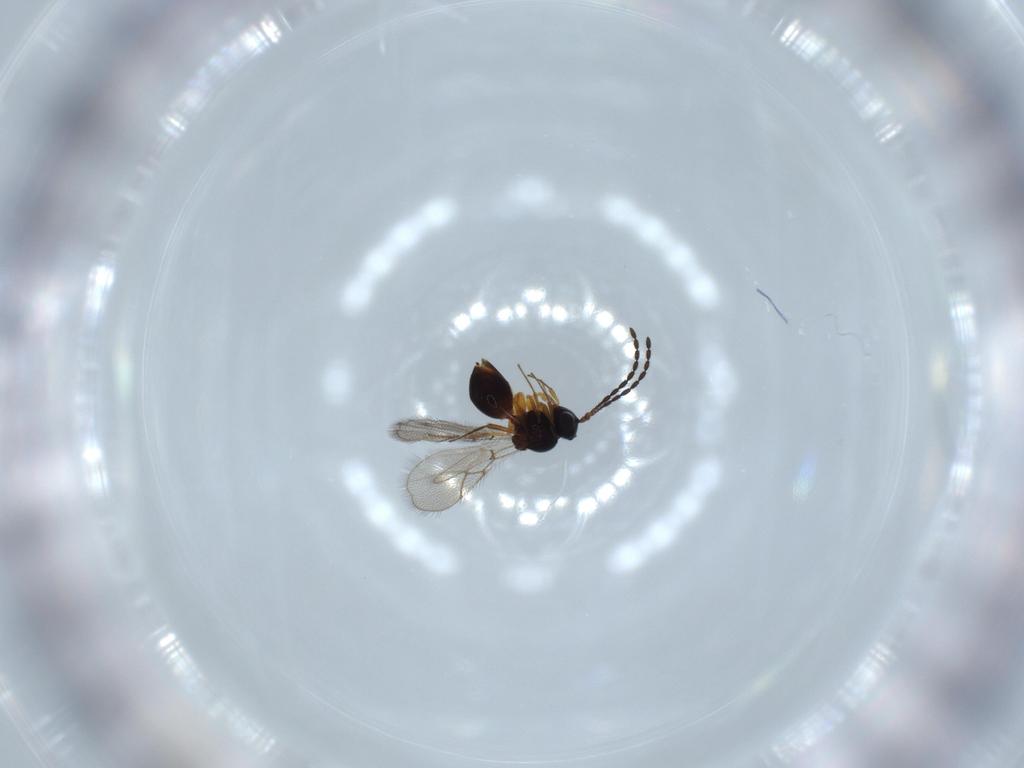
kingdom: Animalia
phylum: Arthropoda
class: Insecta
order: Hymenoptera
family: Figitidae
